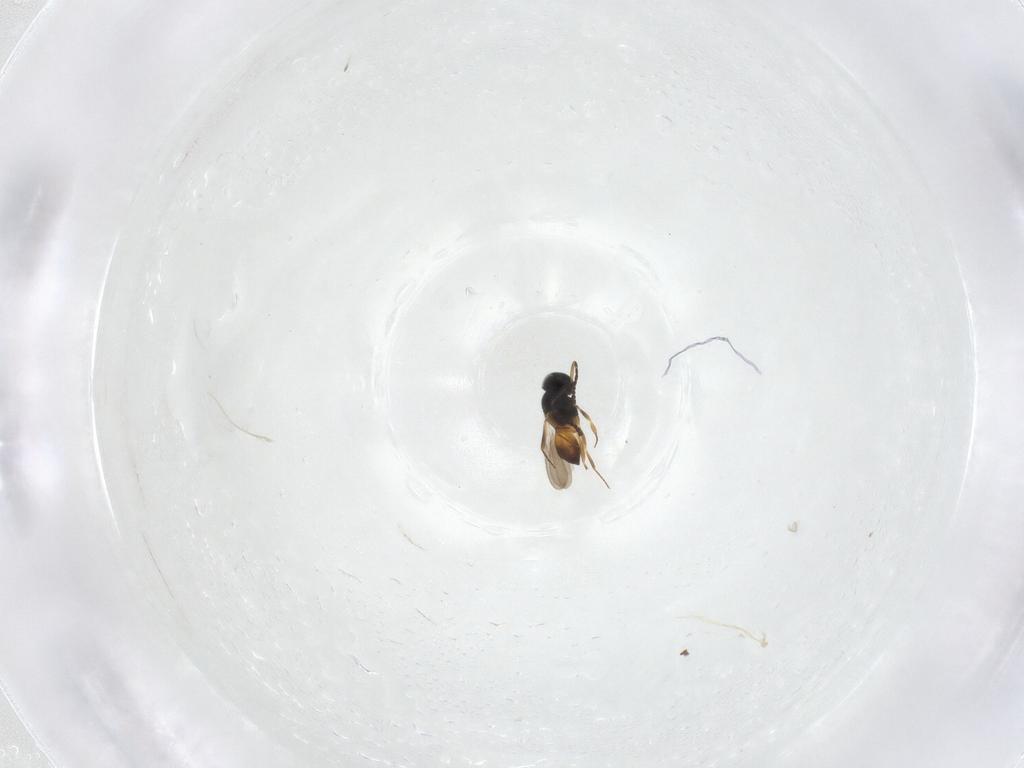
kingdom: Animalia
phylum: Arthropoda
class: Insecta
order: Hymenoptera
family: Scelionidae
